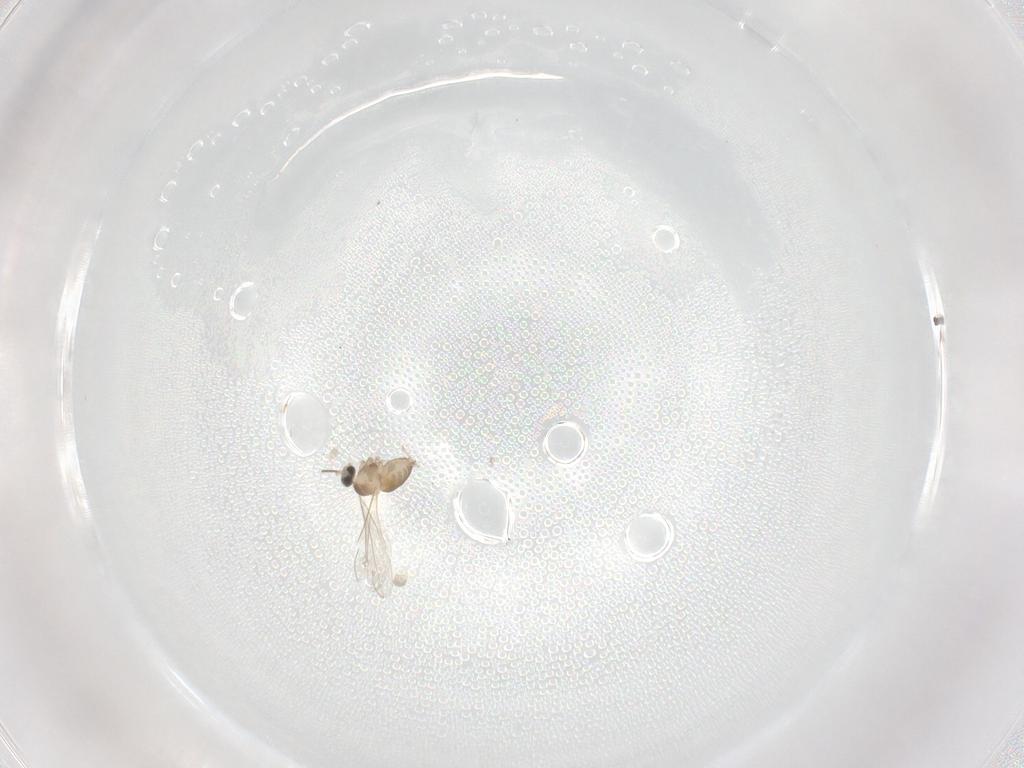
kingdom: Animalia
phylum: Arthropoda
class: Insecta
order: Diptera
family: Cecidomyiidae
